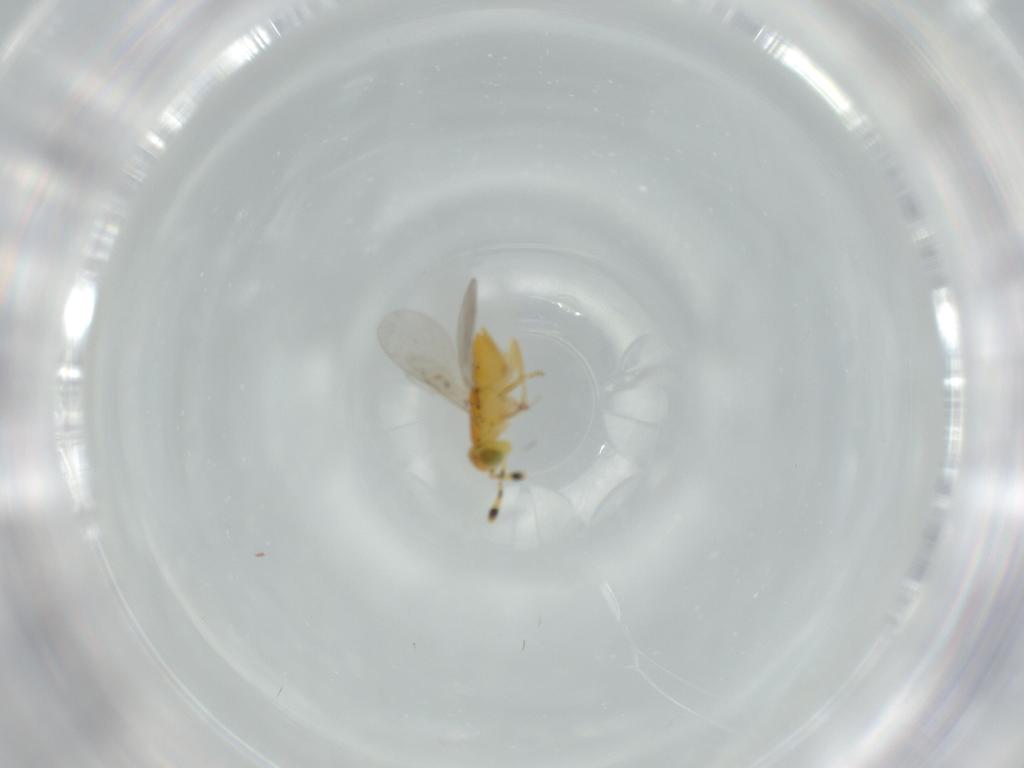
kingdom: Animalia
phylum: Arthropoda
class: Insecta
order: Hymenoptera
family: Encyrtidae
